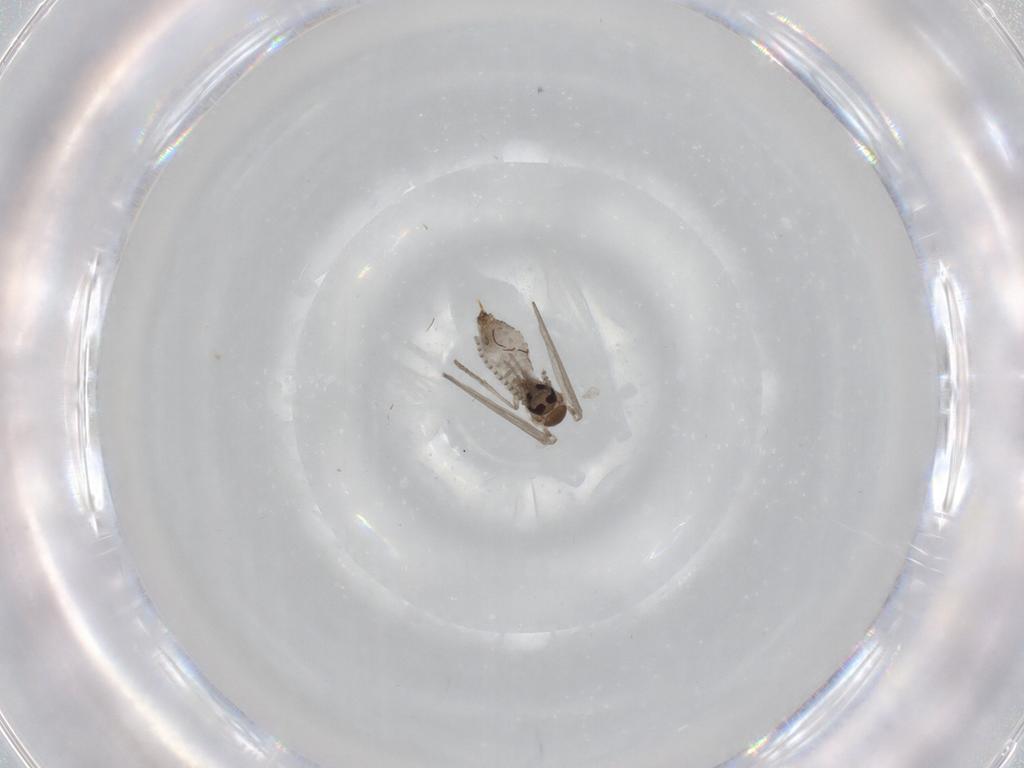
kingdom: Animalia
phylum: Arthropoda
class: Insecta
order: Diptera
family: Psychodidae
